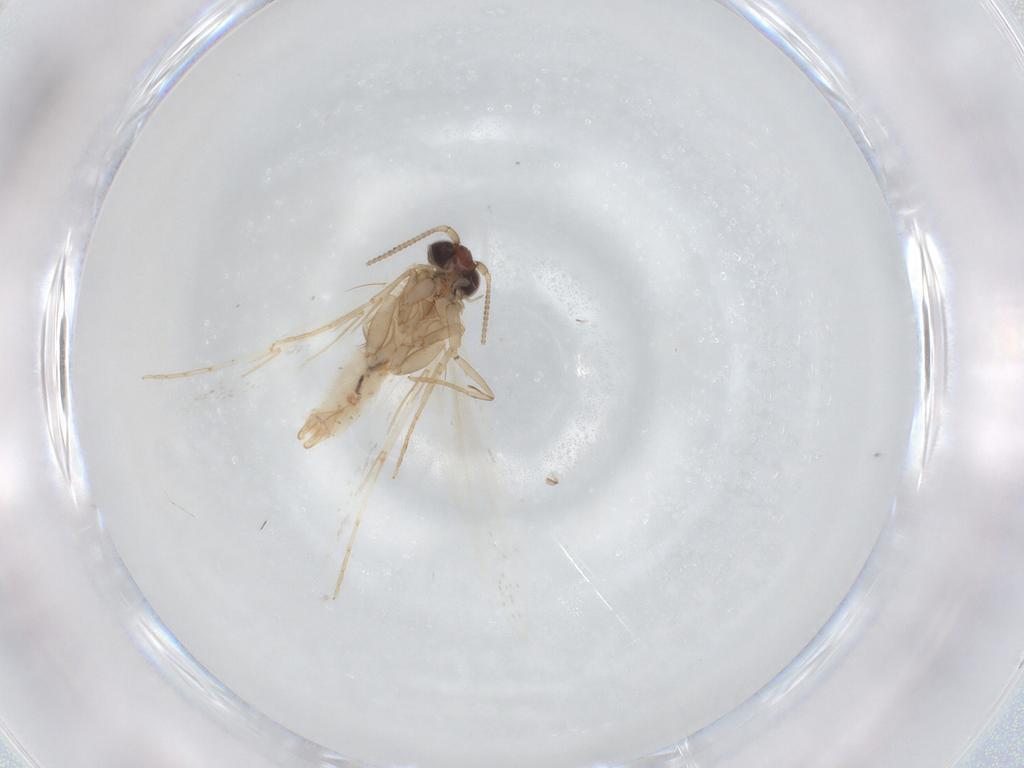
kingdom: Animalia
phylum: Arthropoda
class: Insecta
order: Lepidoptera
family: Tineidae
